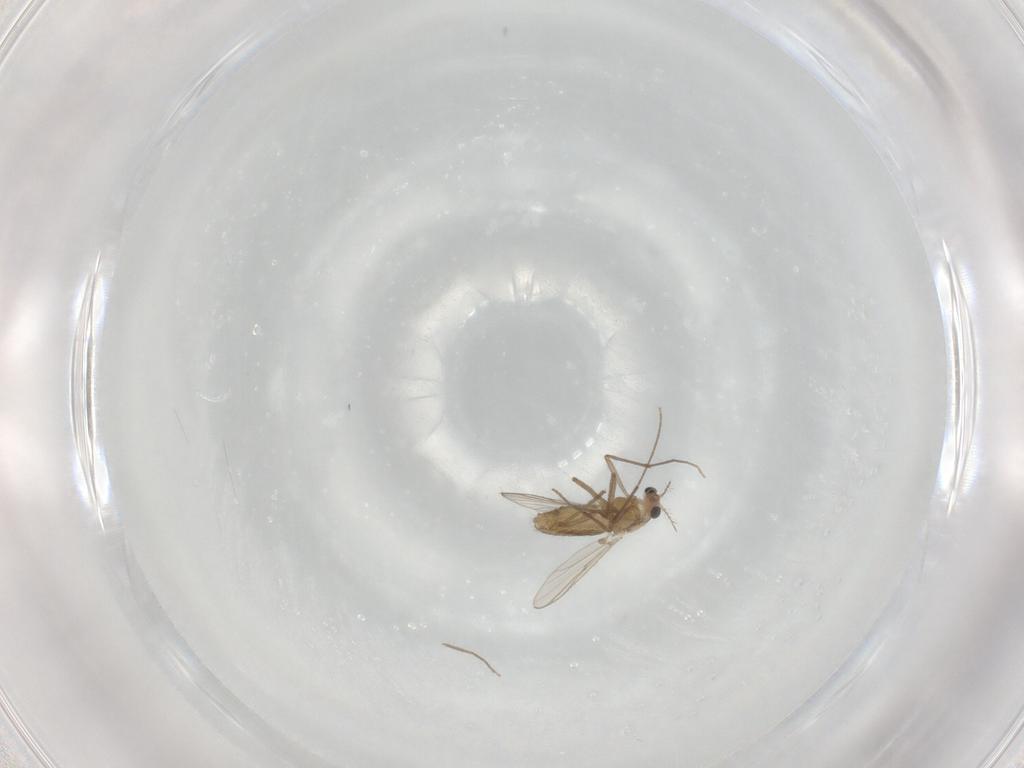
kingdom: Animalia
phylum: Arthropoda
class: Insecta
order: Diptera
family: Chironomidae
